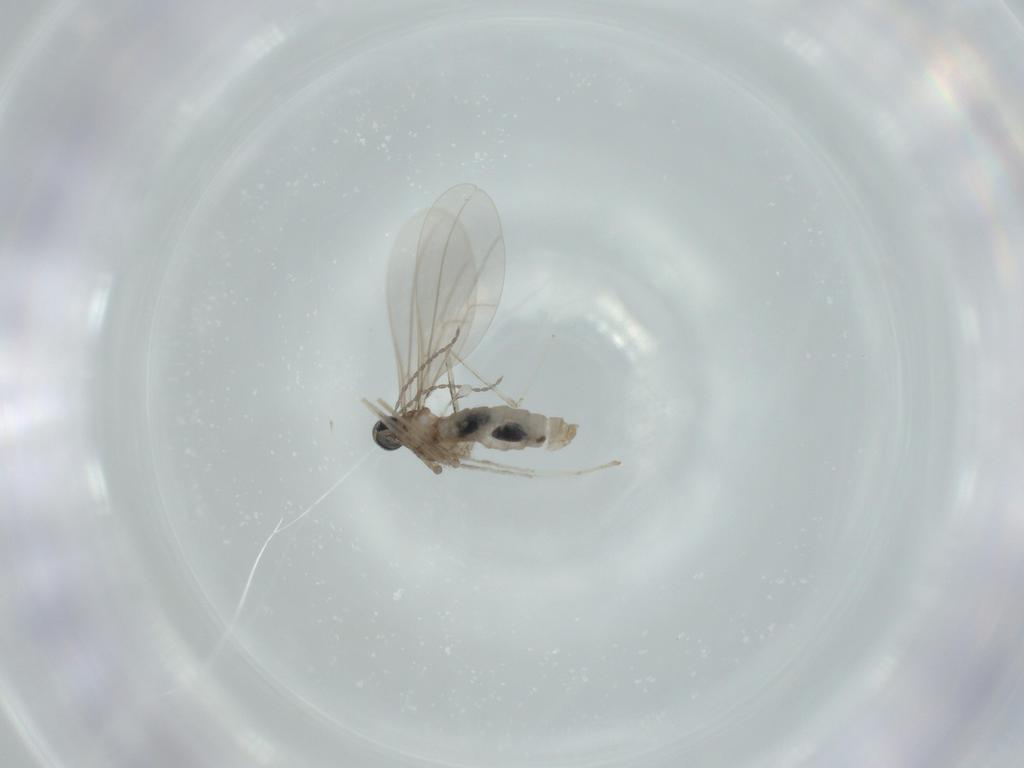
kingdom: Animalia
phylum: Arthropoda
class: Insecta
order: Diptera
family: Cecidomyiidae
